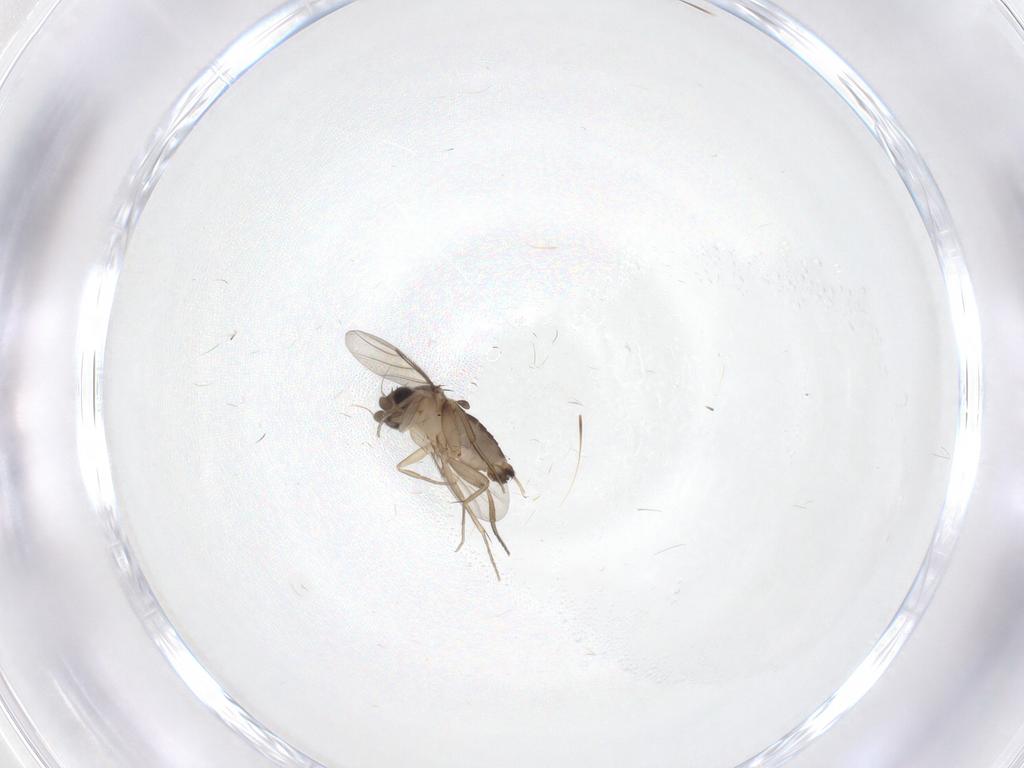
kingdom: Animalia
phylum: Arthropoda
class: Insecta
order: Diptera
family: Phoridae
